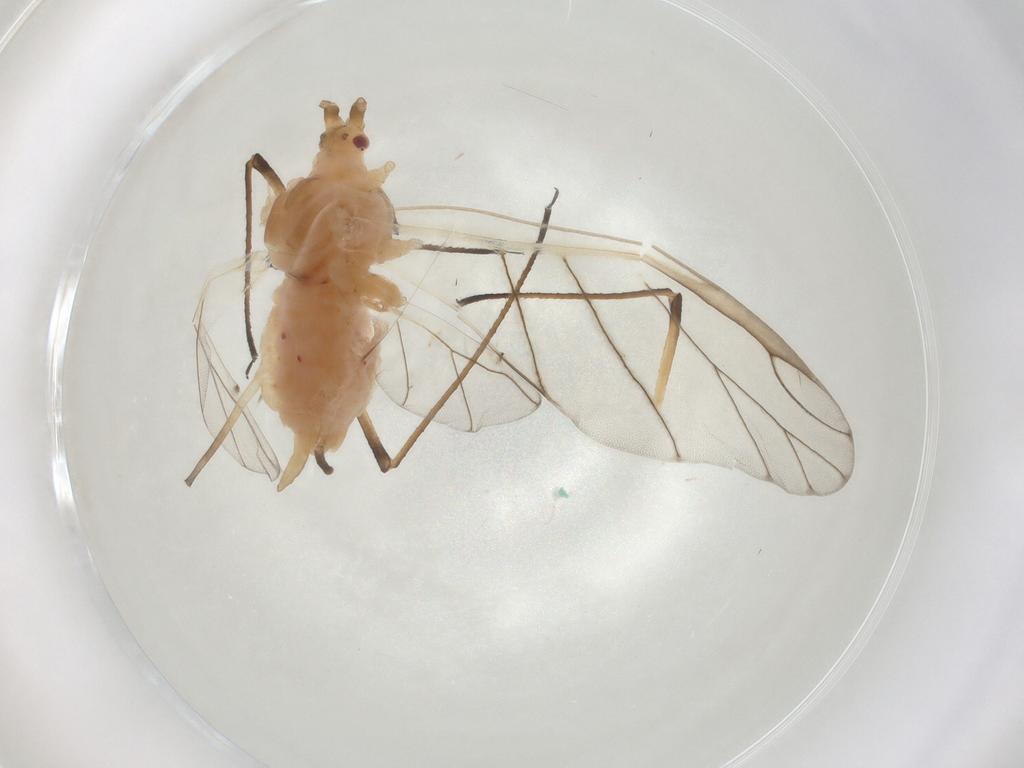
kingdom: Animalia
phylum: Arthropoda
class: Insecta
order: Hemiptera
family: Aphididae
